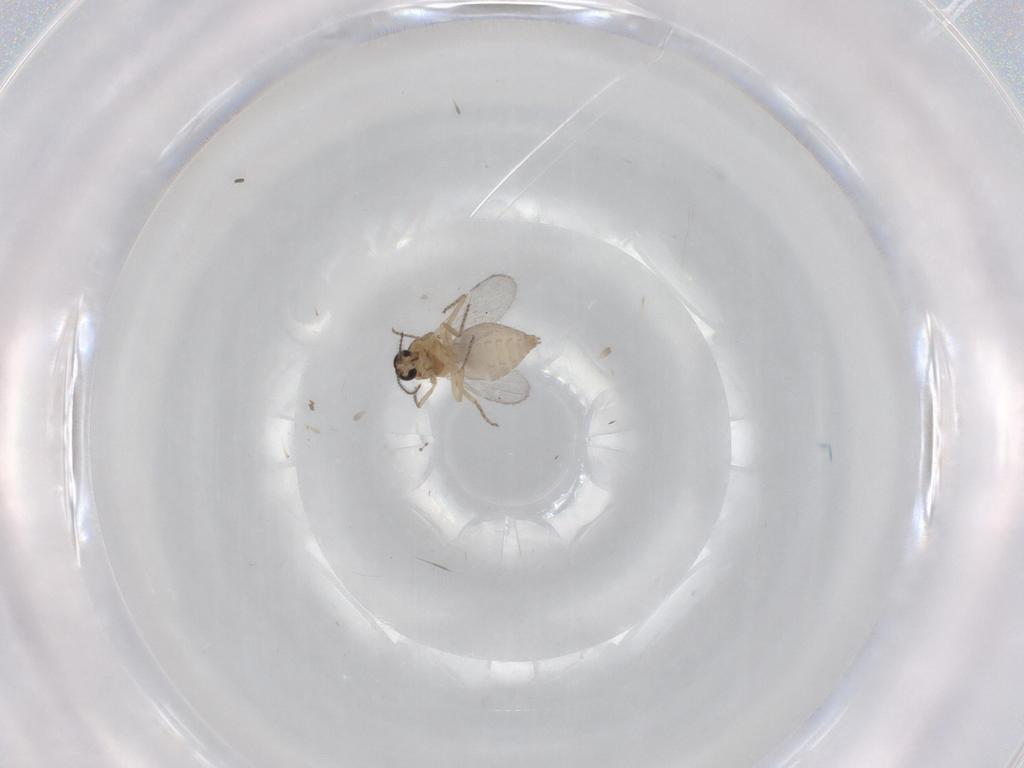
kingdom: Animalia
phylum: Arthropoda
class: Insecta
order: Diptera
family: Ceratopogonidae
